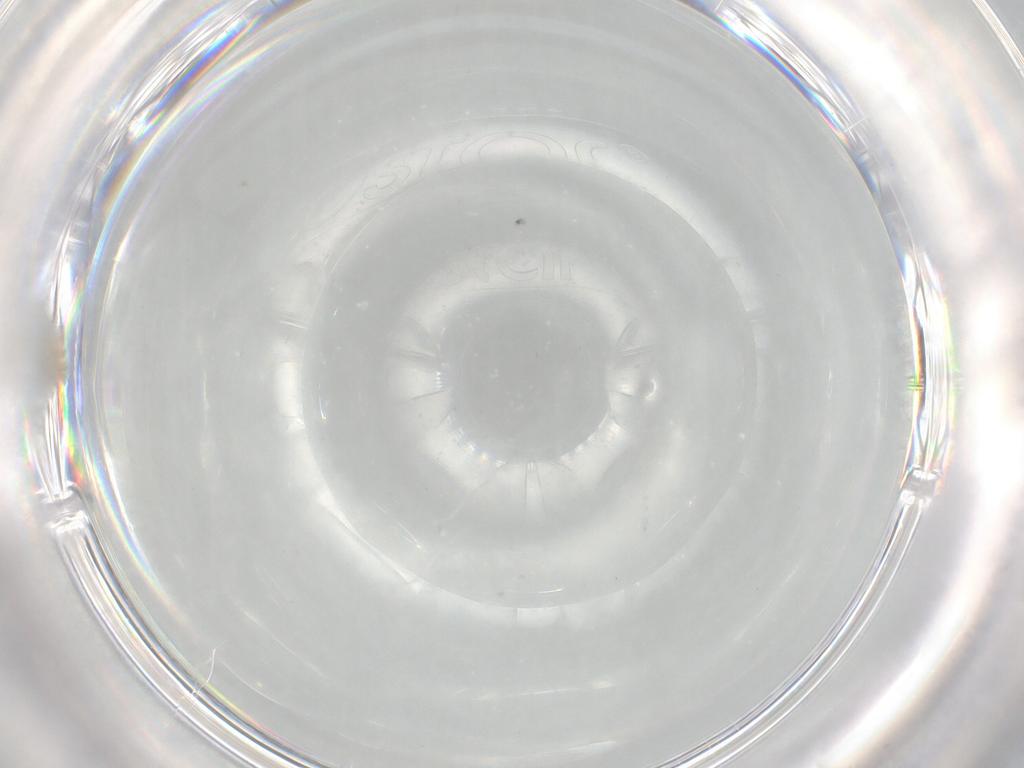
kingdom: Animalia
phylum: Arthropoda
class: Insecta
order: Diptera
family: Cecidomyiidae
